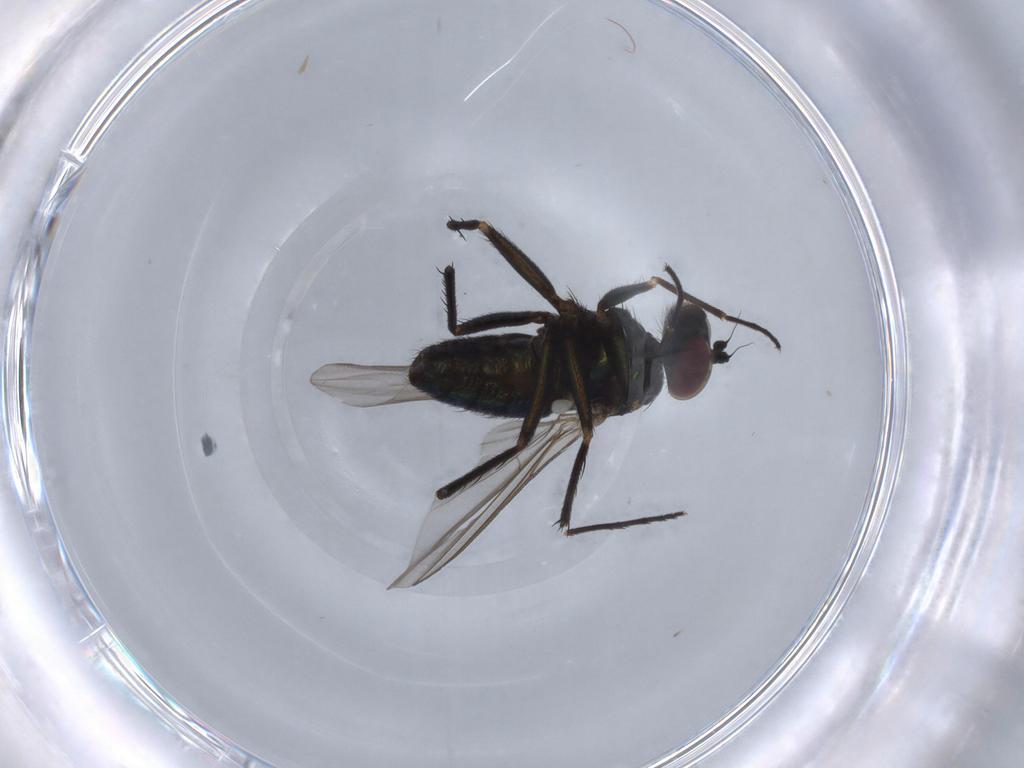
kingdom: Animalia
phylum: Arthropoda
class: Insecta
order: Diptera
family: Dolichopodidae
